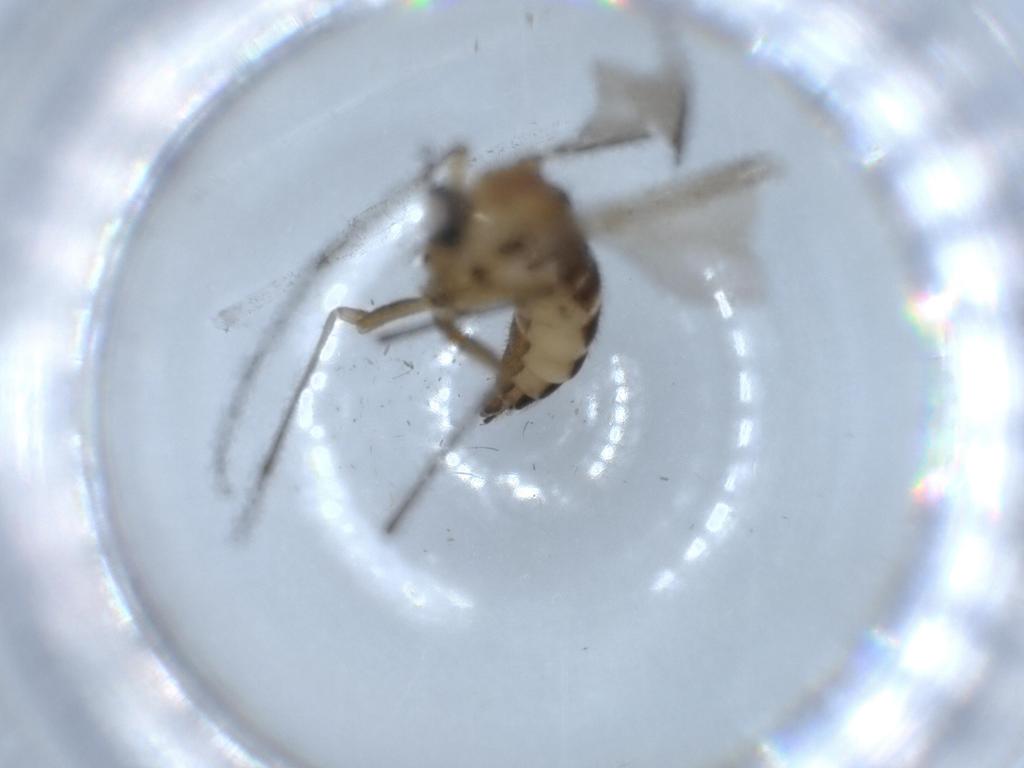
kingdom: Animalia
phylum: Arthropoda
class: Insecta
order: Diptera
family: Sciaridae
